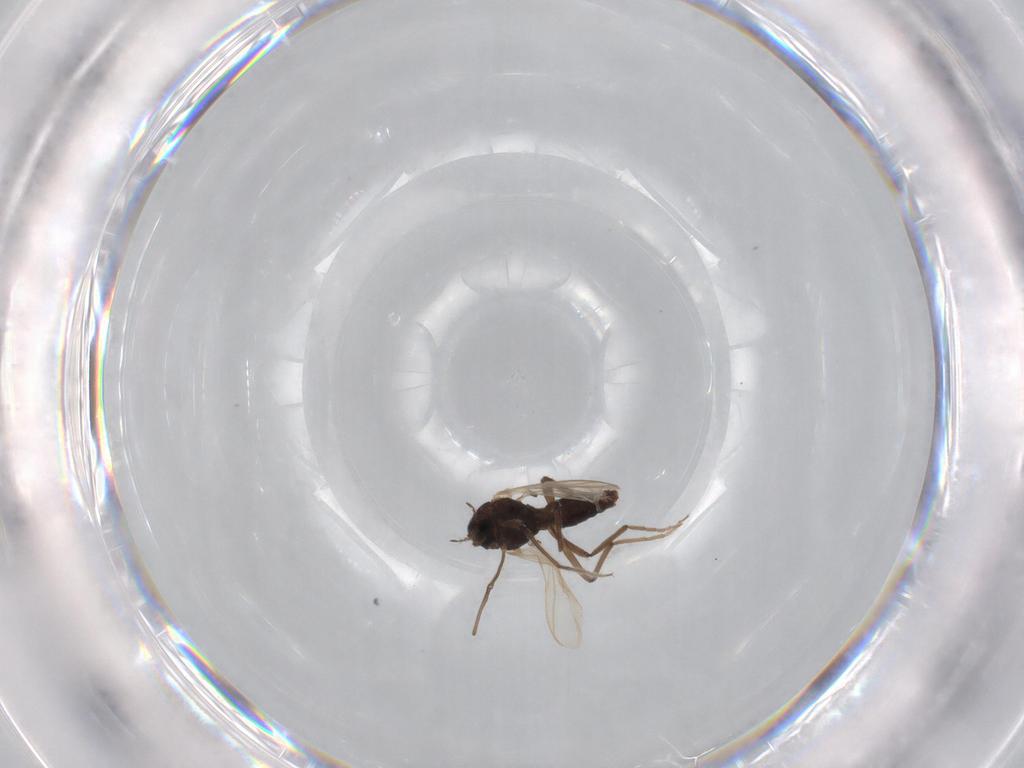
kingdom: Animalia
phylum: Arthropoda
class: Insecta
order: Diptera
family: Chironomidae
